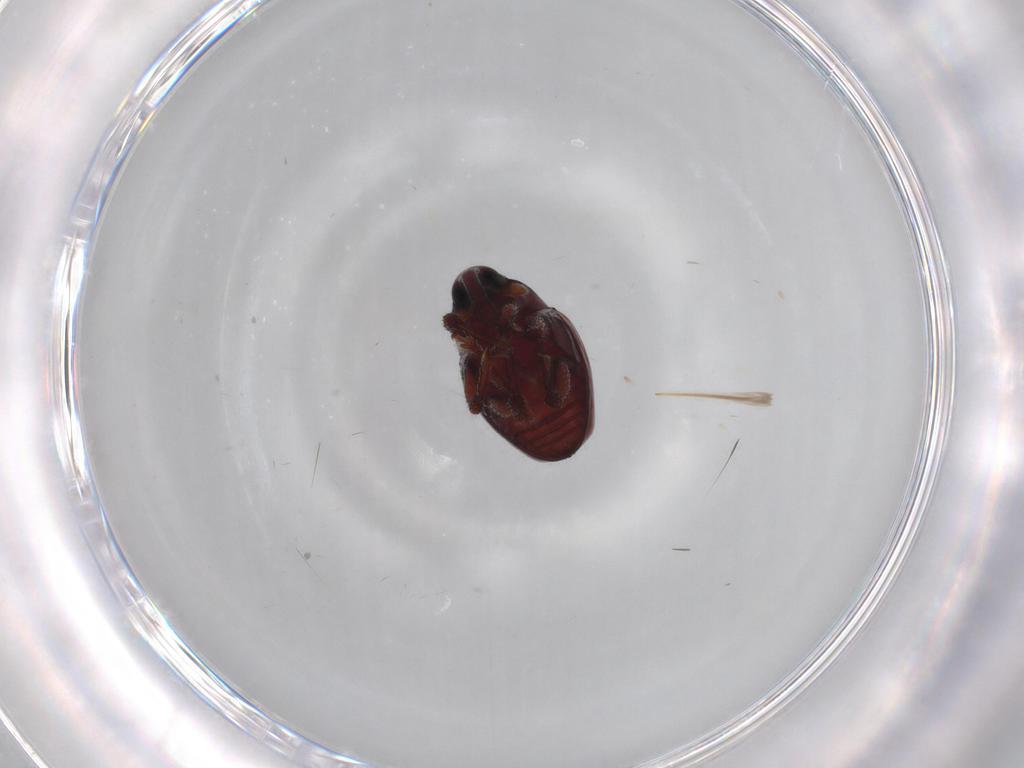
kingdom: Animalia
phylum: Arthropoda
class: Insecta
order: Coleoptera
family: Curculionidae
